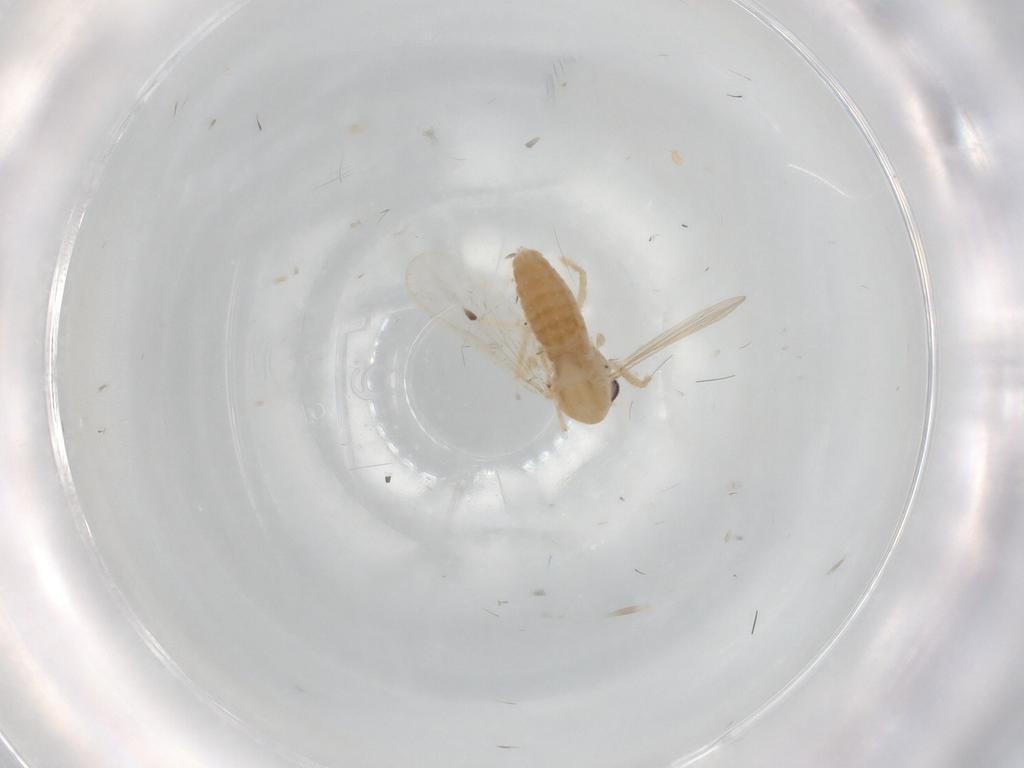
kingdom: Animalia
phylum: Arthropoda
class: Insecta
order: Diptera
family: Chironomidae
